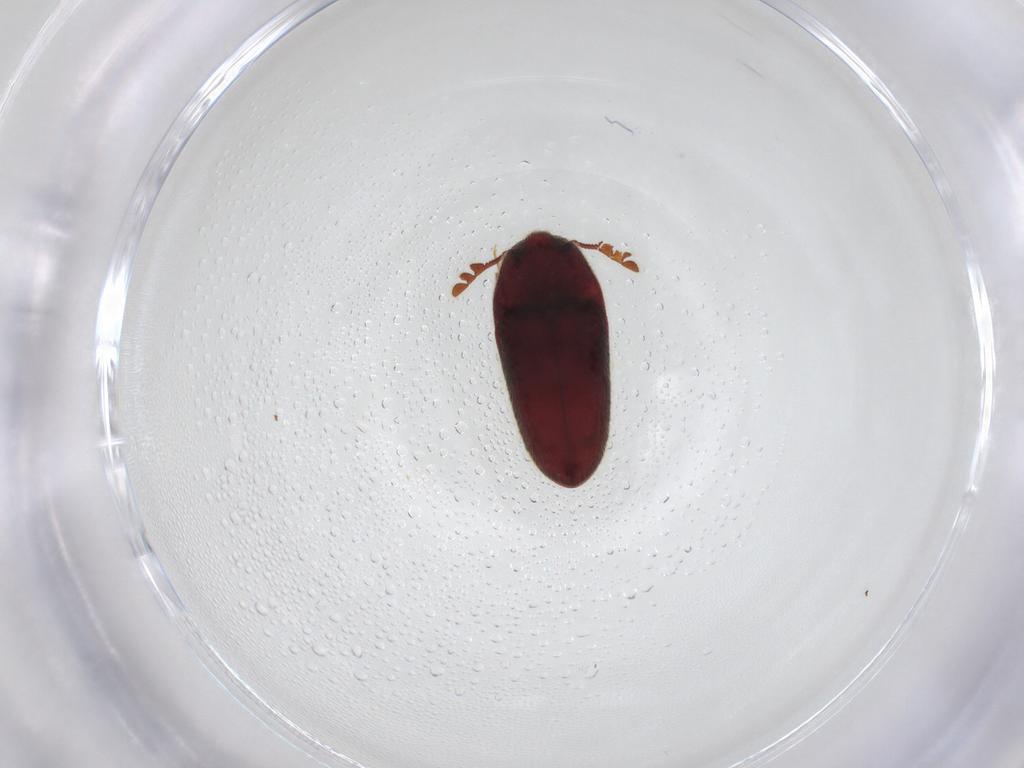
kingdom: Animalia
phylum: Arthropoda
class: Insecta
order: Coleoptera
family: Throscidae
